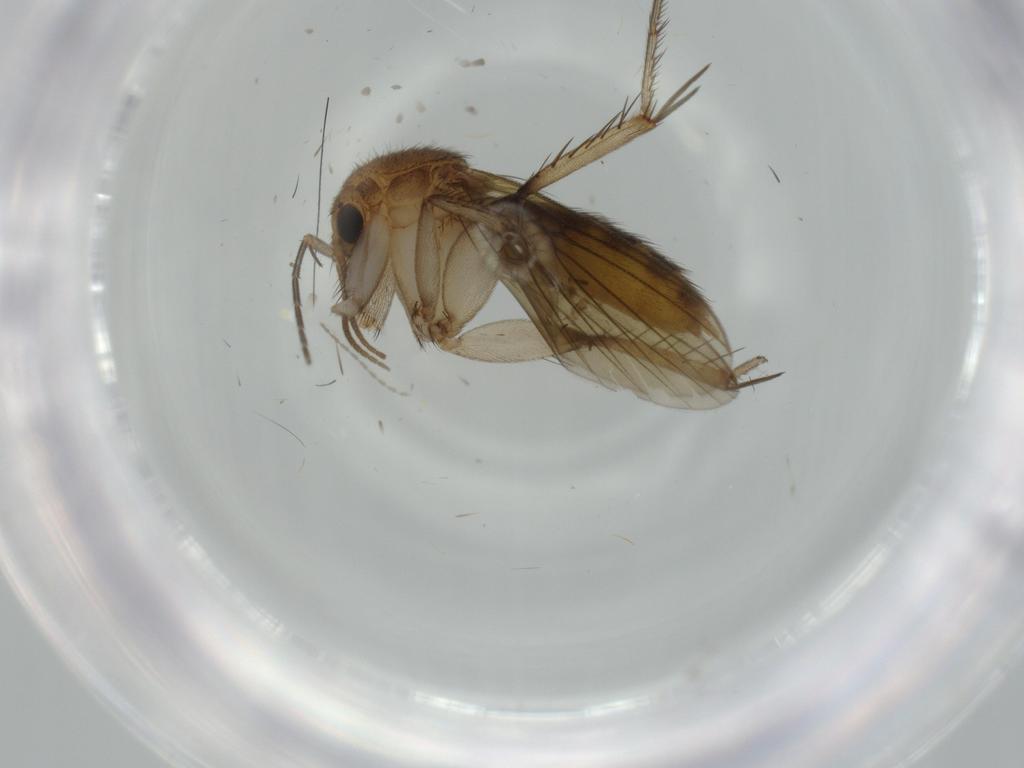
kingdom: Animalia
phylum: Arthropoda
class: Insecta
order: Diptera
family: Mycetophilidae
